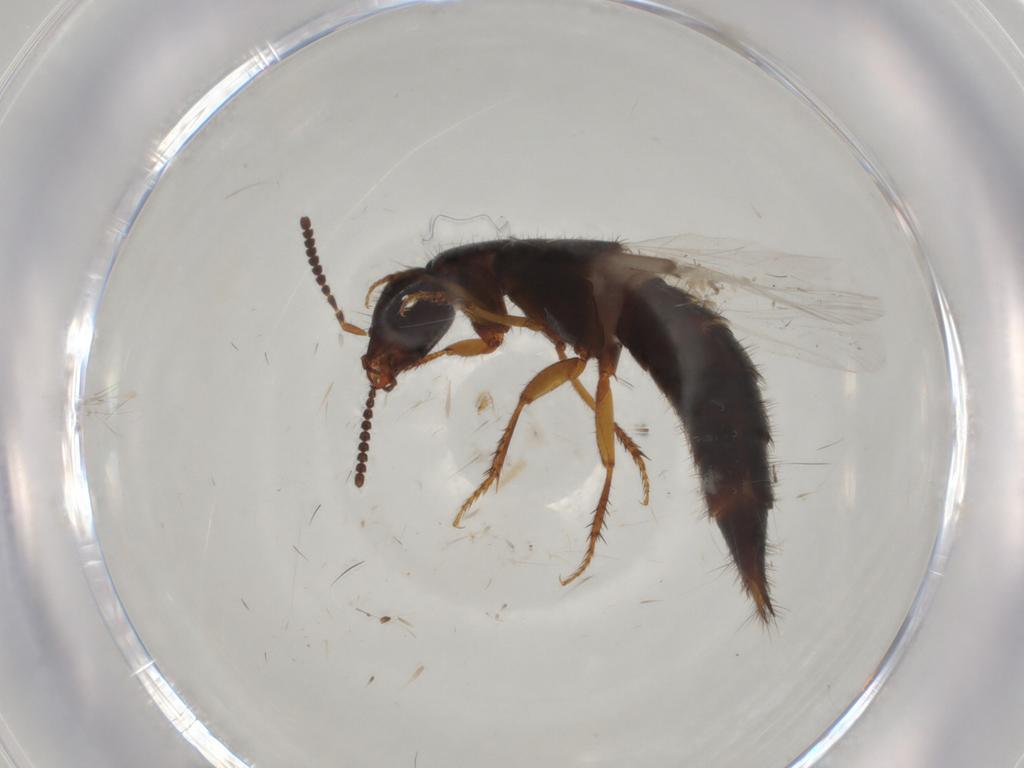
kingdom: Animalia
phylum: Arthropoda
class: Insecta
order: Coleoptera
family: Staphylinidae
